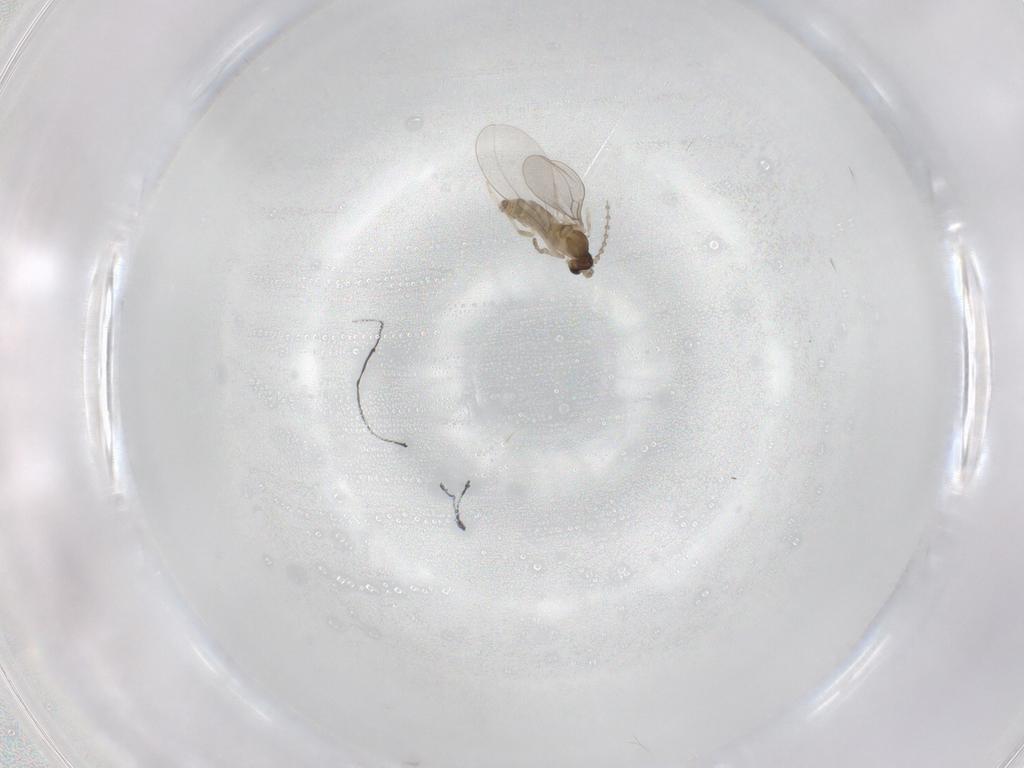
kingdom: Animalia
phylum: Arthropoda
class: Insecta
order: Diptera
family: Cecidomyiidae
